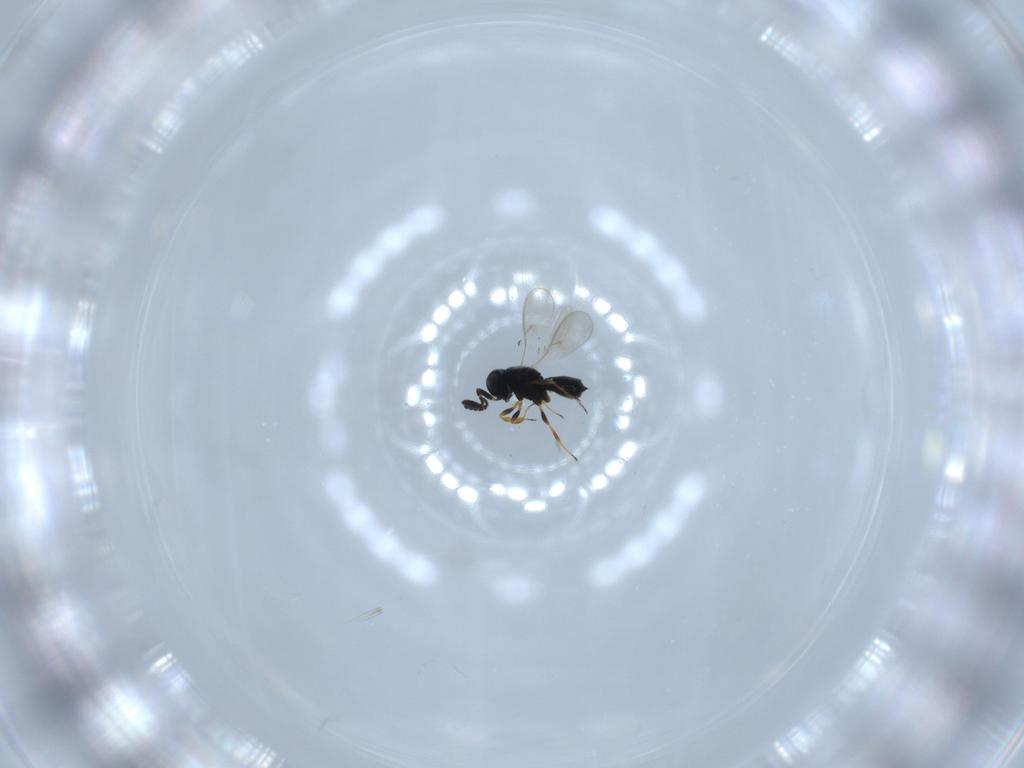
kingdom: Animalia
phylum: Arthropoda
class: Insecta
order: Hymenoptera
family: Scelionidae
